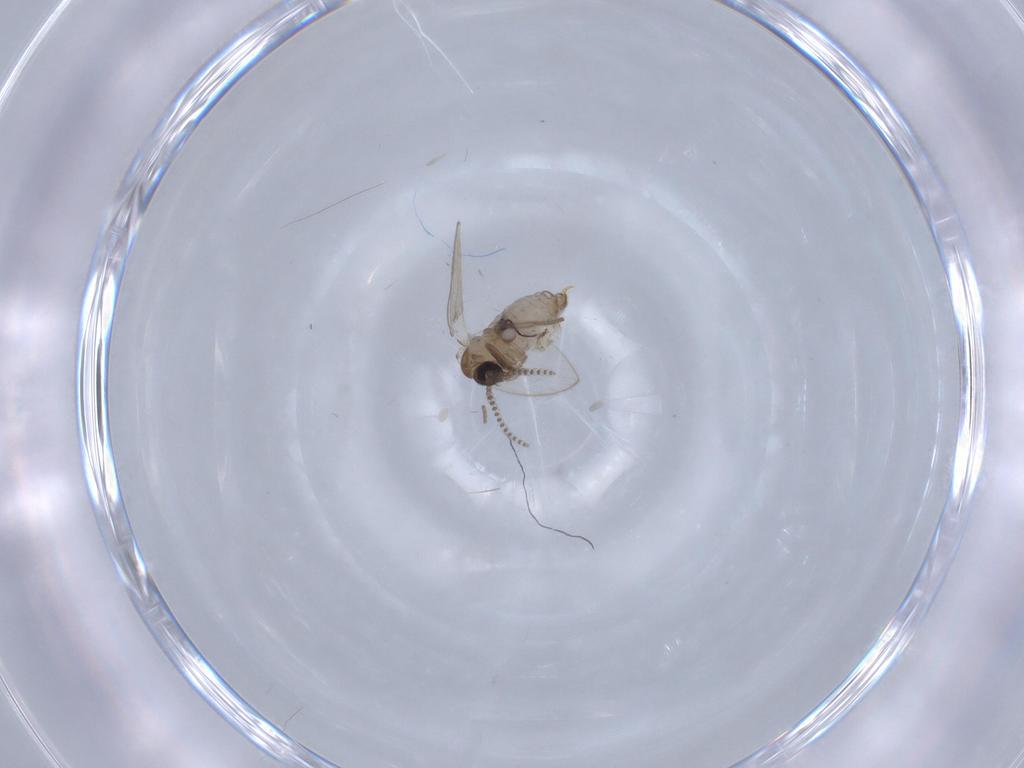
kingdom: Animalia
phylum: Arthropoda
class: Insecta
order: Diptera
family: Psychodidae
